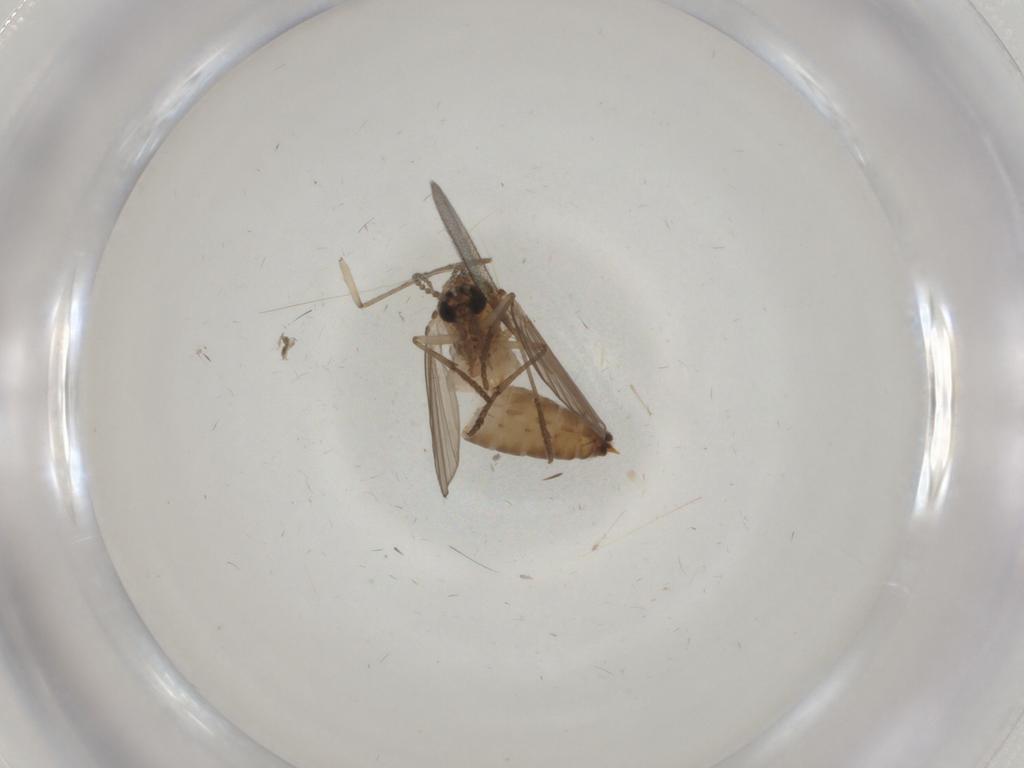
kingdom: Animalia
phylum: Arthropoda
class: Insecta
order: Diptera
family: Psychodidae
